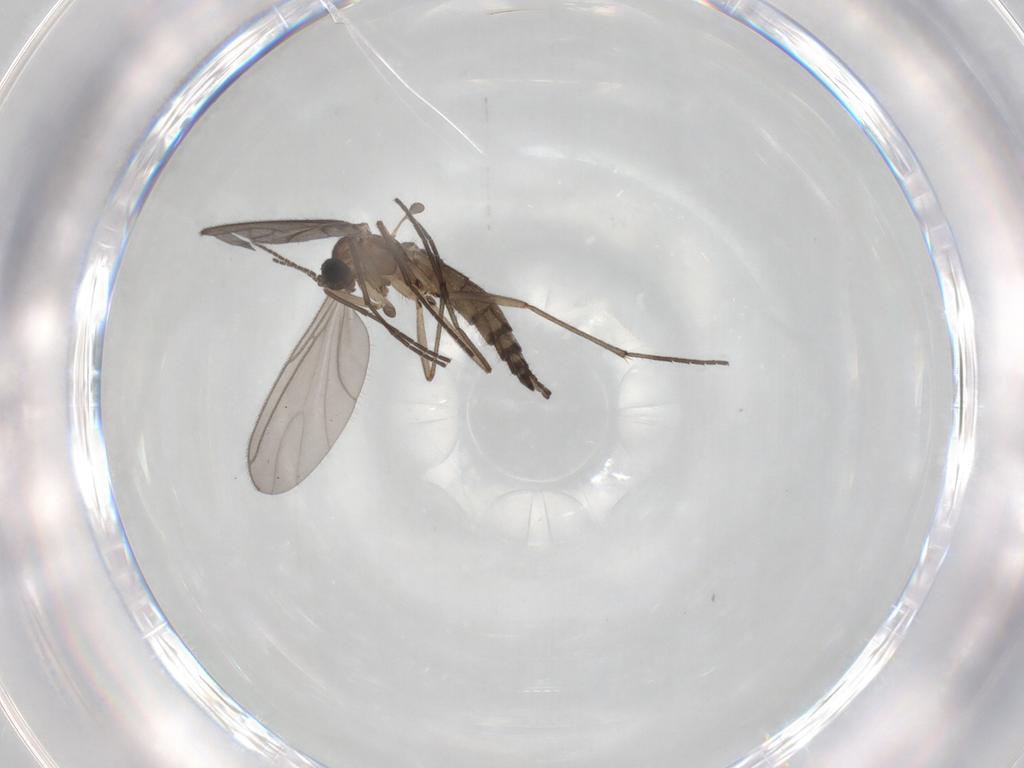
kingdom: Animalia
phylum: Arthropoda
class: Insecta
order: Diptera
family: Sciaridae
